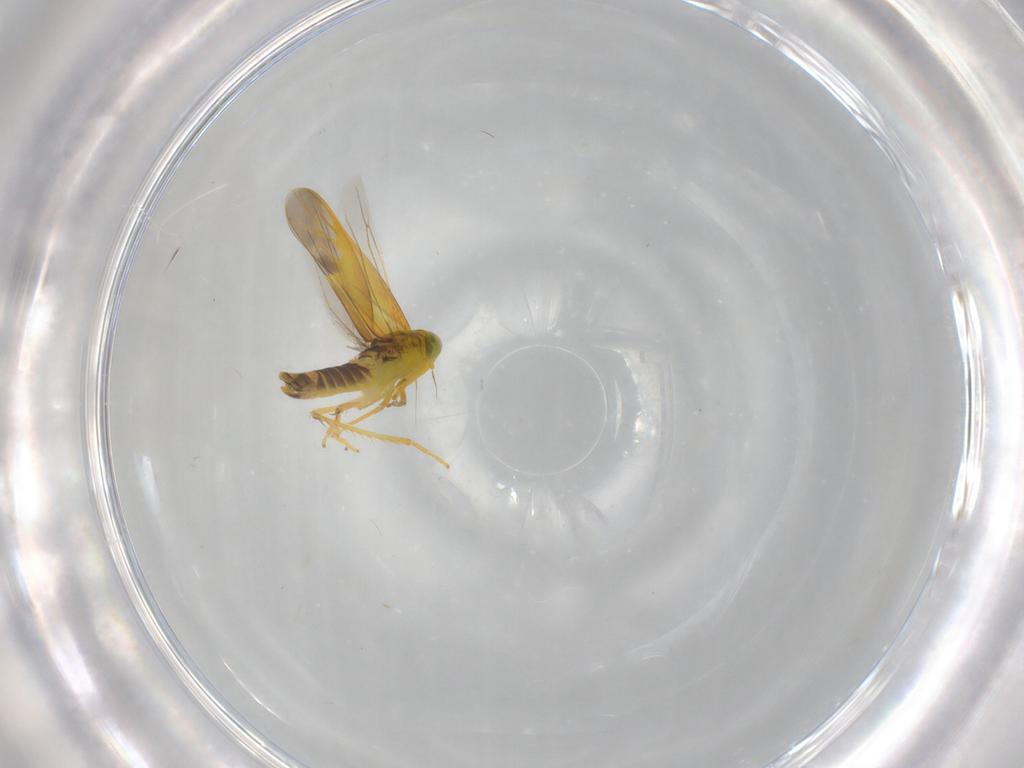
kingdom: Animalia
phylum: Arthropoda
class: Insecta
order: Hemiptera
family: Cicadellidae
